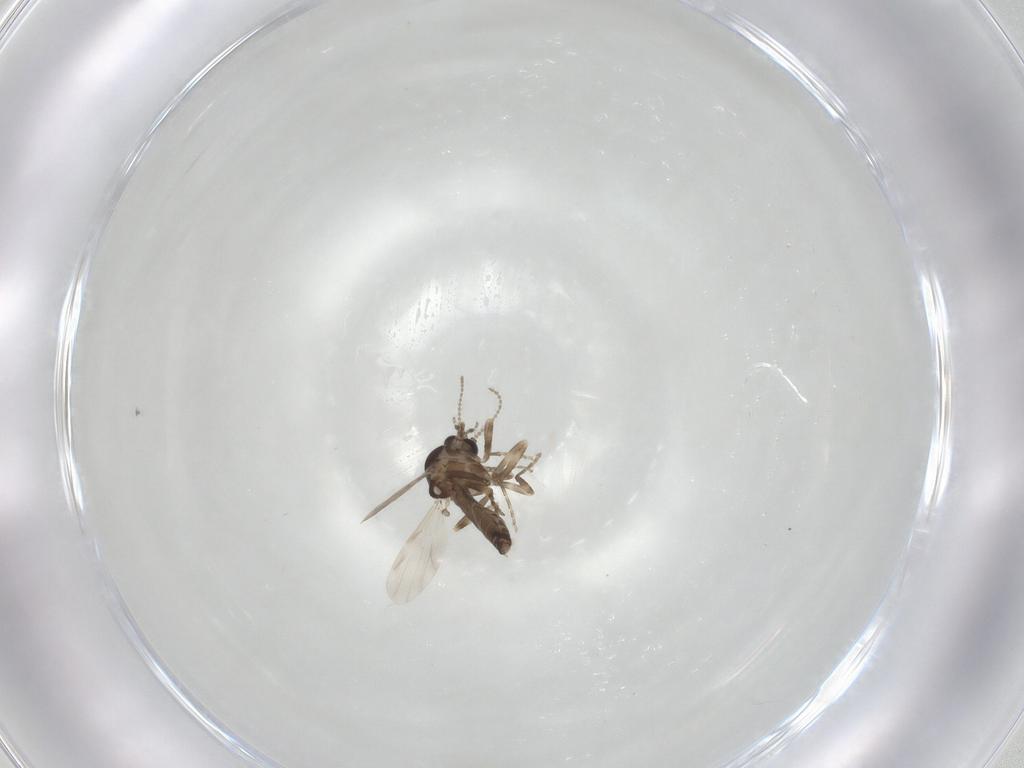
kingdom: Animalia
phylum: Arthropoda
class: Insecta
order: Diptera
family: Ceratopogonidae
